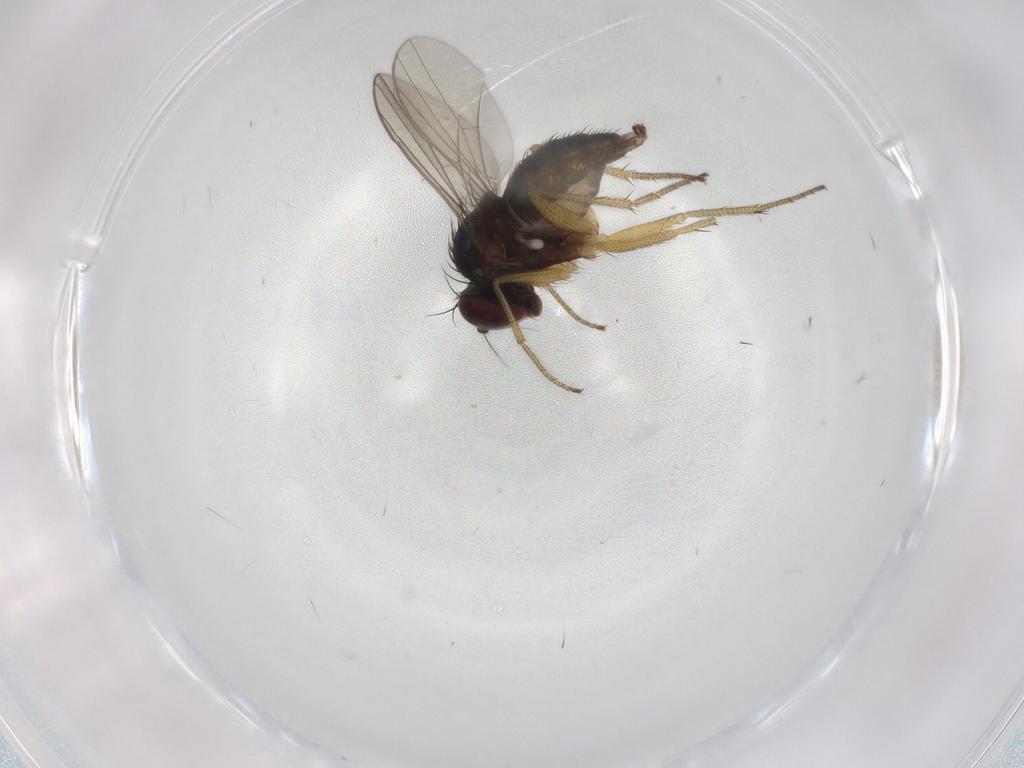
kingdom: Animalia
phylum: Arthropoda
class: Insecta
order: Diptera
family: Dolichopodidae
